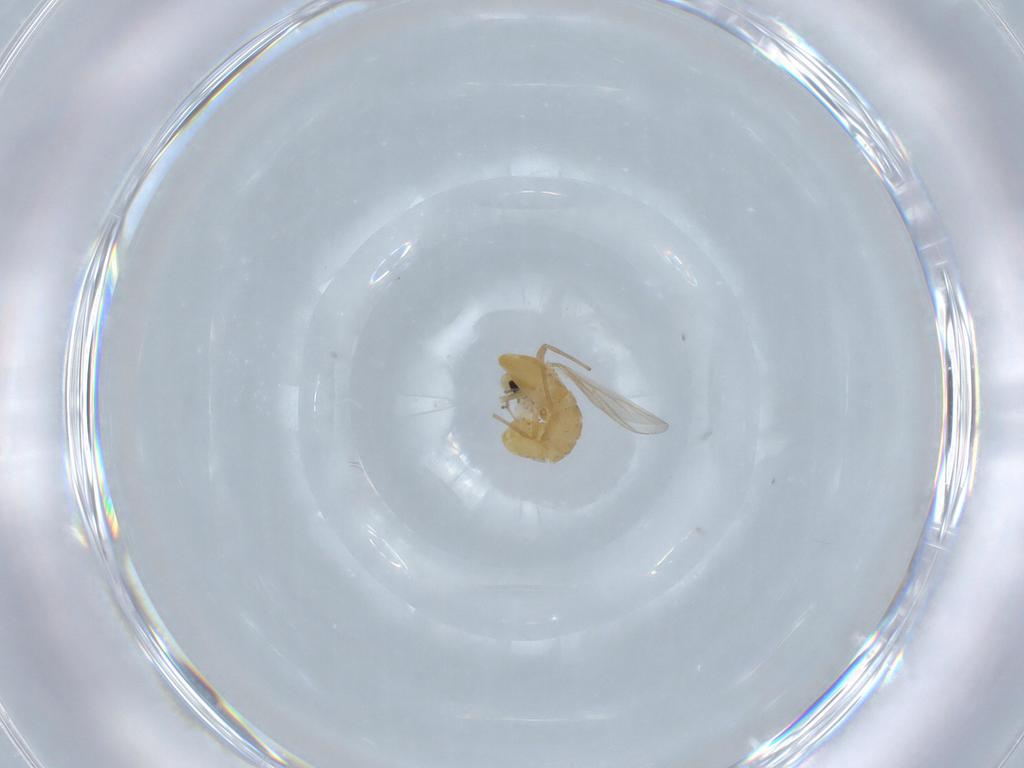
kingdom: Animalia
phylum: Arthropoda
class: Insecta
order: Diptera
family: Chironomidae
